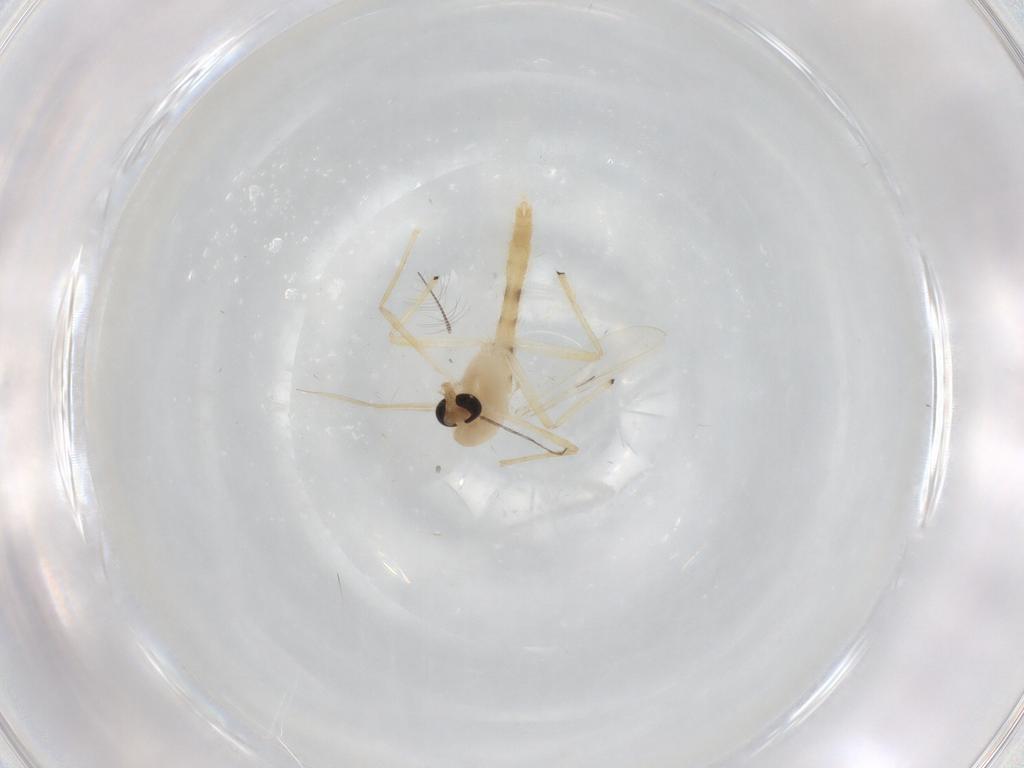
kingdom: Animalia
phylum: Arthropoda
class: Insecta
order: Diptera
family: Chironomidae
